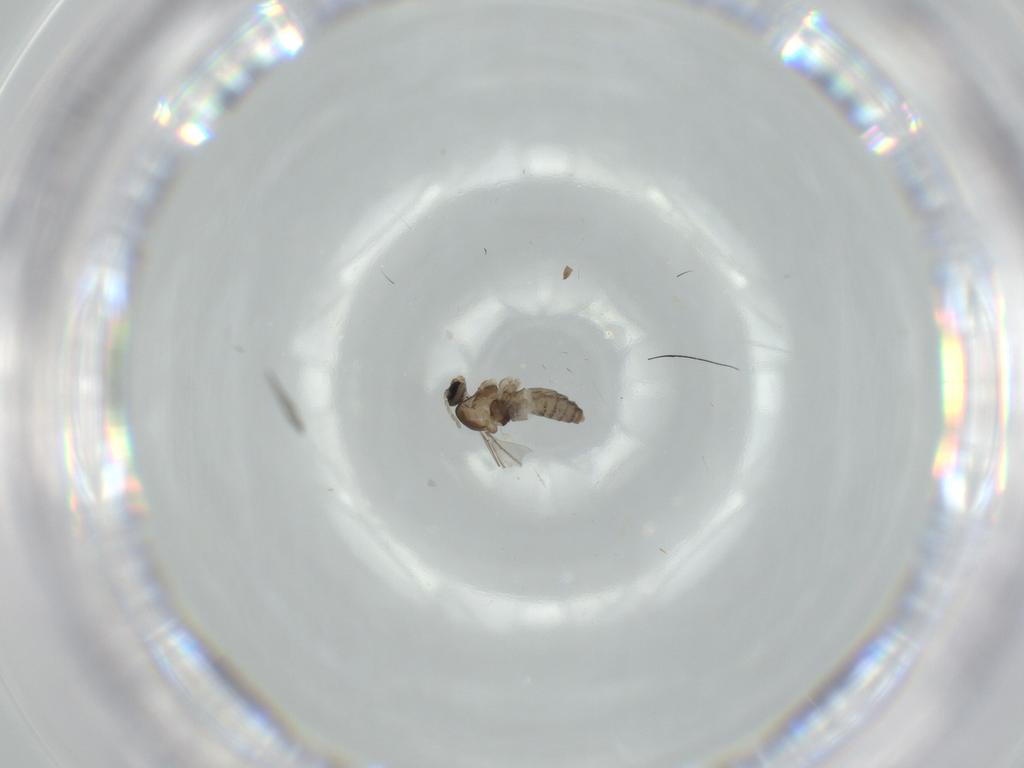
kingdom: Animalia
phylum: Arthropoda
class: Insecta
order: Diptera
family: Cecidomyiidae
